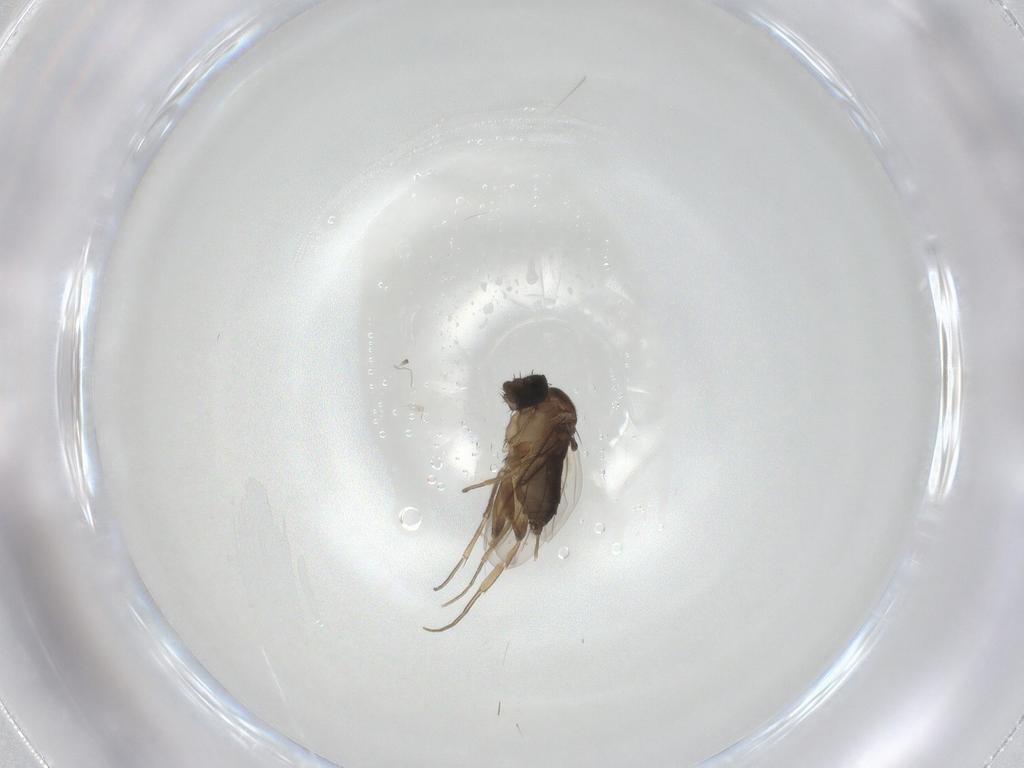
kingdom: Animalia
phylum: Arthropoda
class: Insecta
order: Diptera
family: Phoridae
